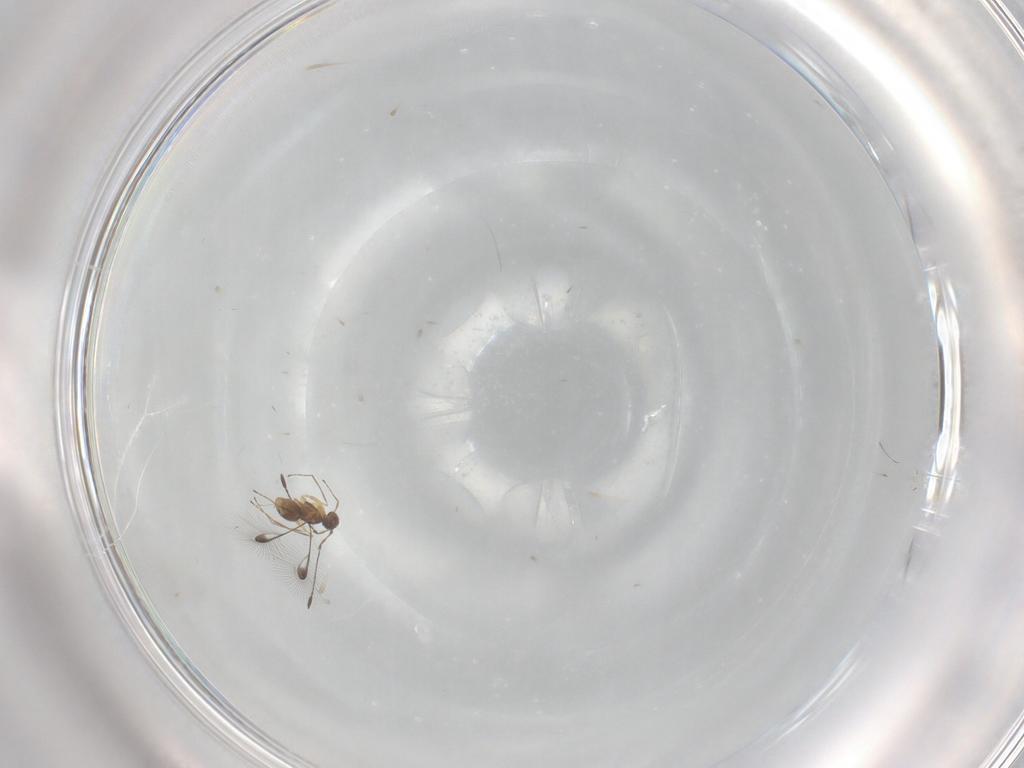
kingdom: Animalia
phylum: Arthropoda
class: Insecta
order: Hymenoptera
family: Mymaridae
